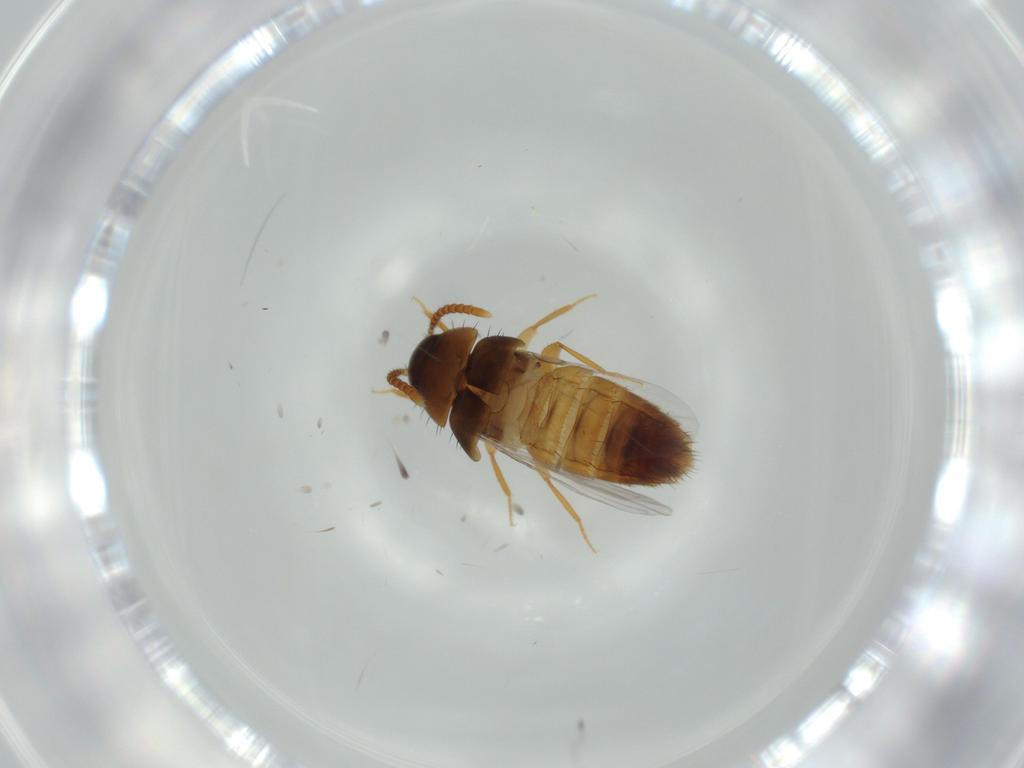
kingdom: Animalia
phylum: Arthropoda
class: Insecta
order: Coleoptera
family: Staphylinidae
